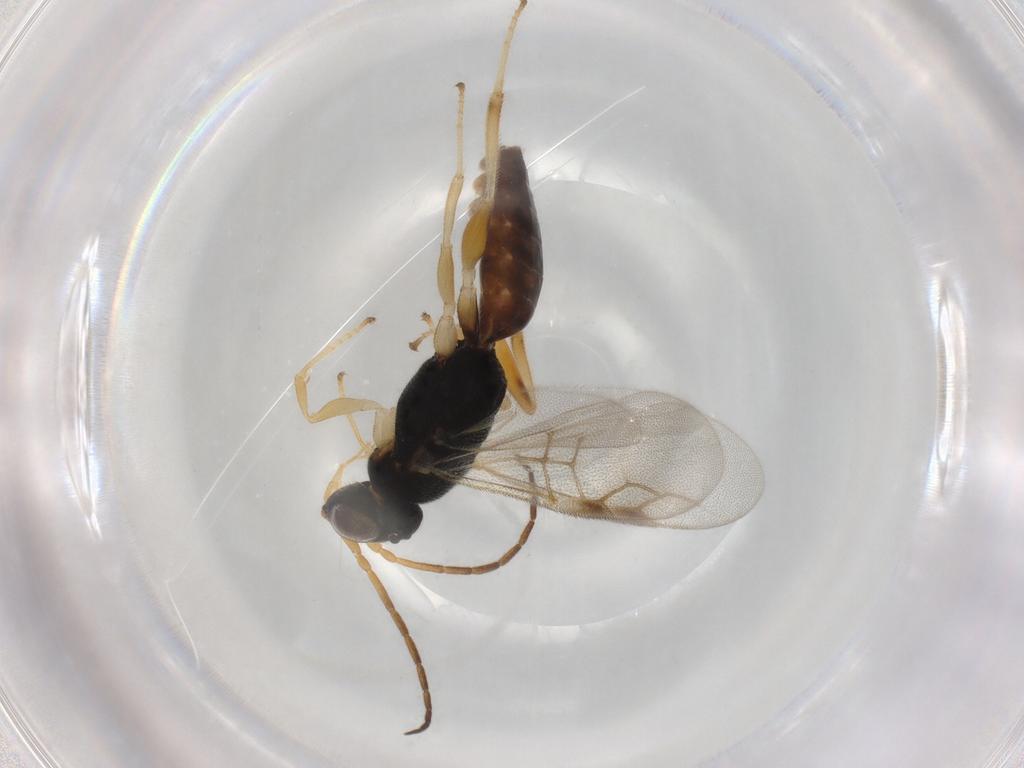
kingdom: Animalia
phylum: Arthropoda
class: Insecta
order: Hymenoptera
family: Dryinidae
